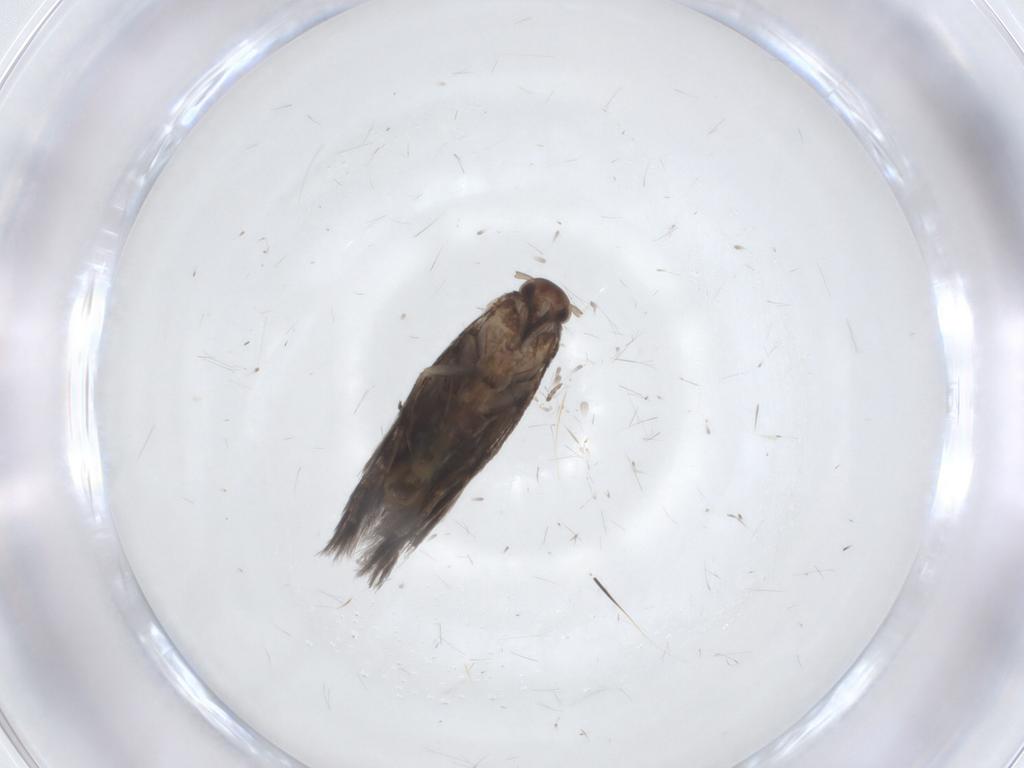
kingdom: Animalia
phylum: Arthropoda
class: Insecta
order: Lepidoptera
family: Elachistidae
